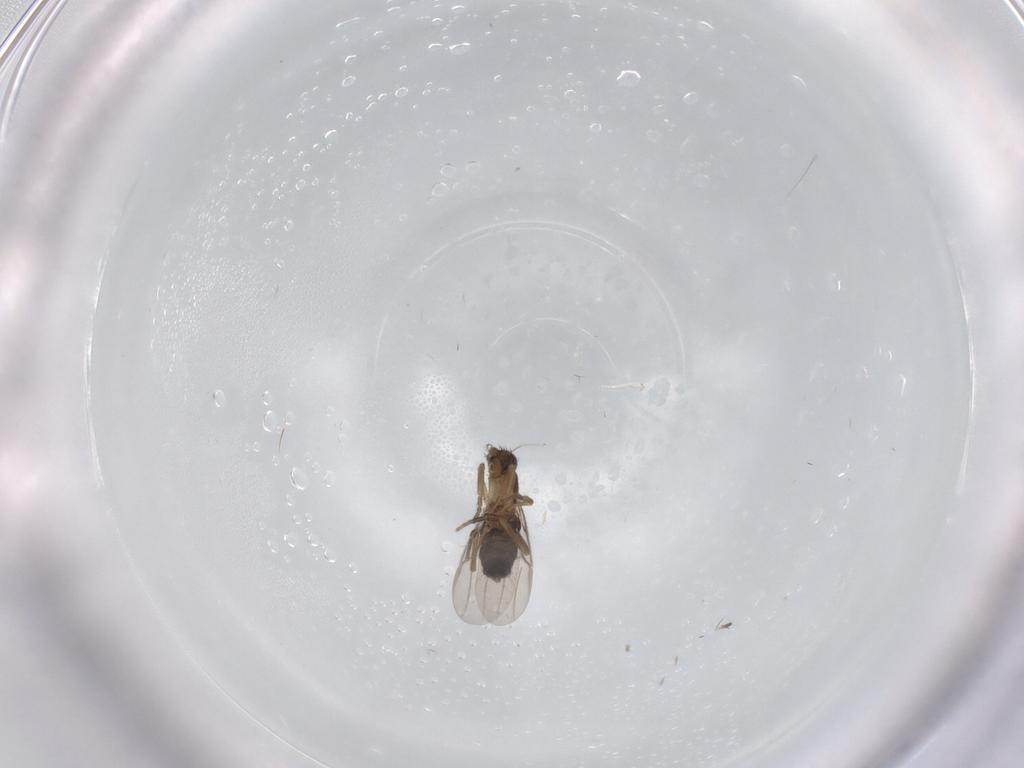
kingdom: Animalia
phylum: Arthropoda
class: Insecta
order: Diptera
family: Phoridae
